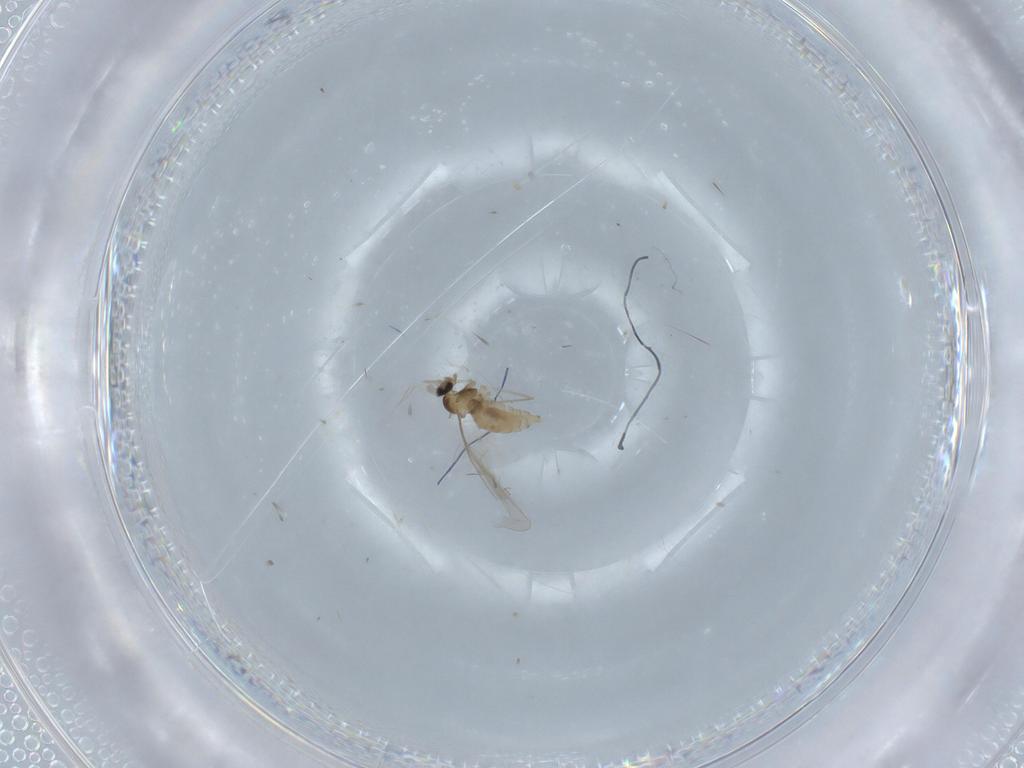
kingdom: Animalia
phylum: Arthropoda
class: Insecta
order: Diptera
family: Cecidomyiidae
